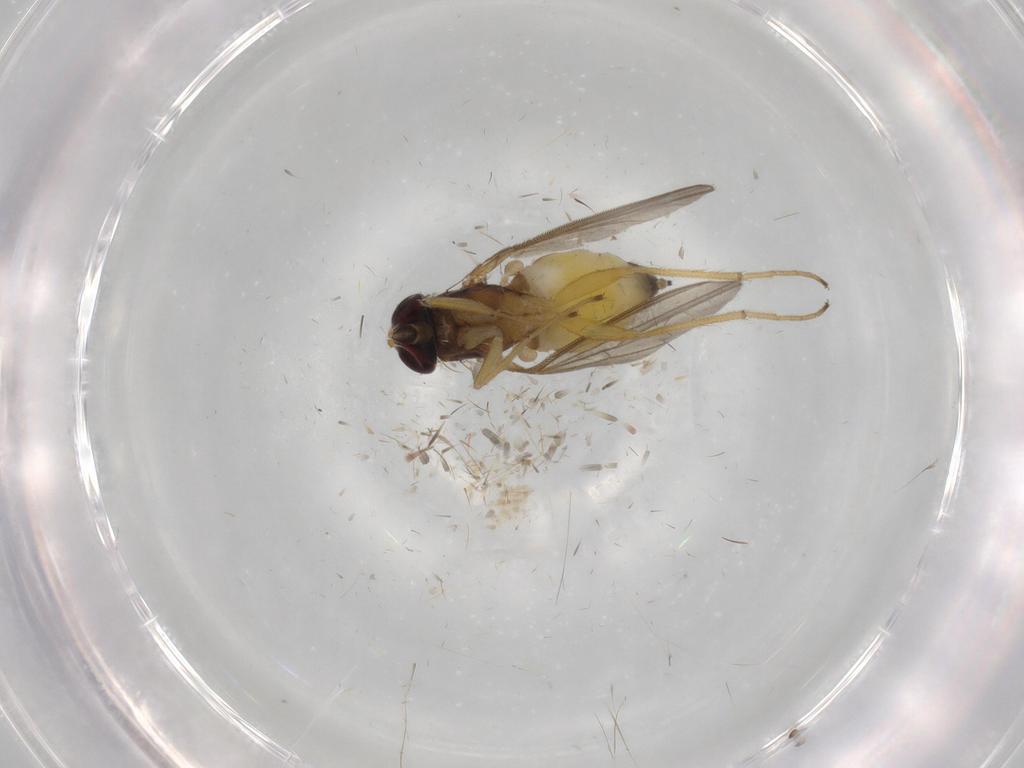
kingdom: Animalia
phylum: Arthropoda
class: Insecta
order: Diptera
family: Dolichopodidae
